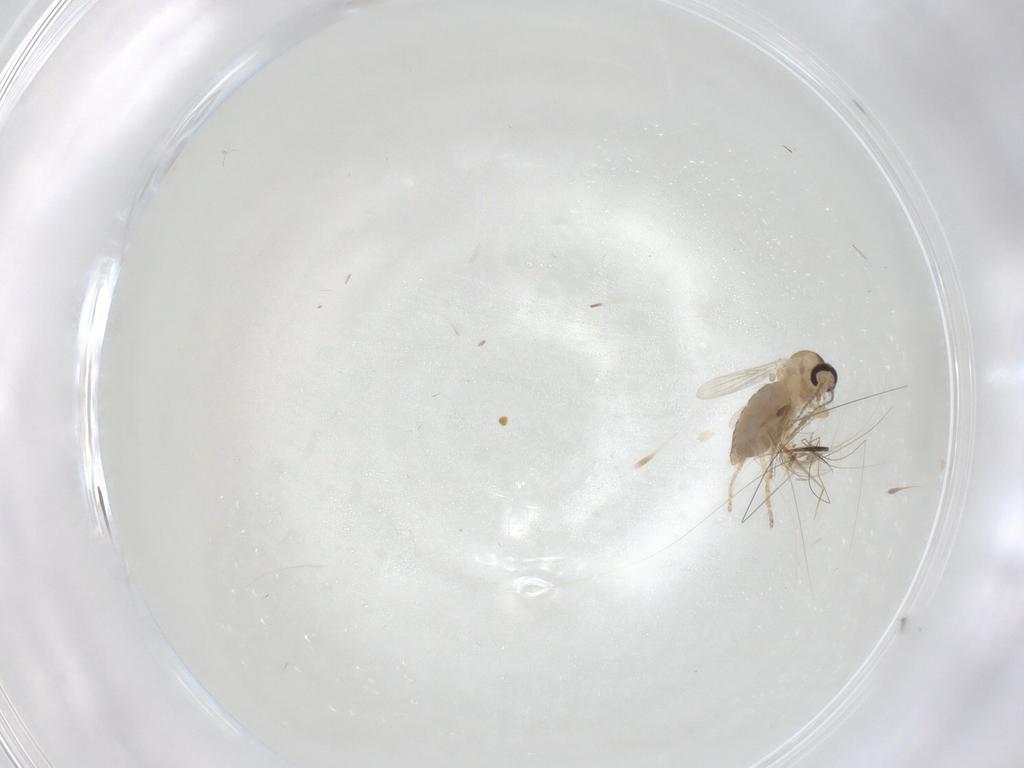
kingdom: Animalia
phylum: Arthropoda
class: Insecta
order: Diptera
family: Ceratopogonidae
